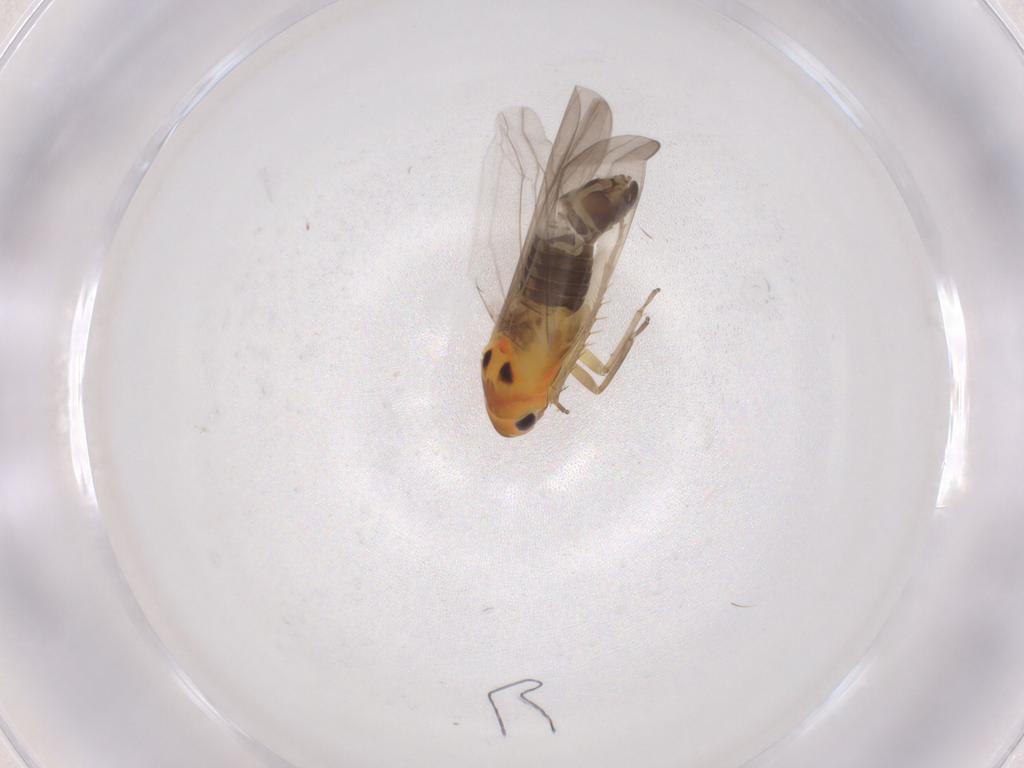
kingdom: Animalia
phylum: Arthropoda
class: Insecta
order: Hemiptera
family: Cicadellidae
